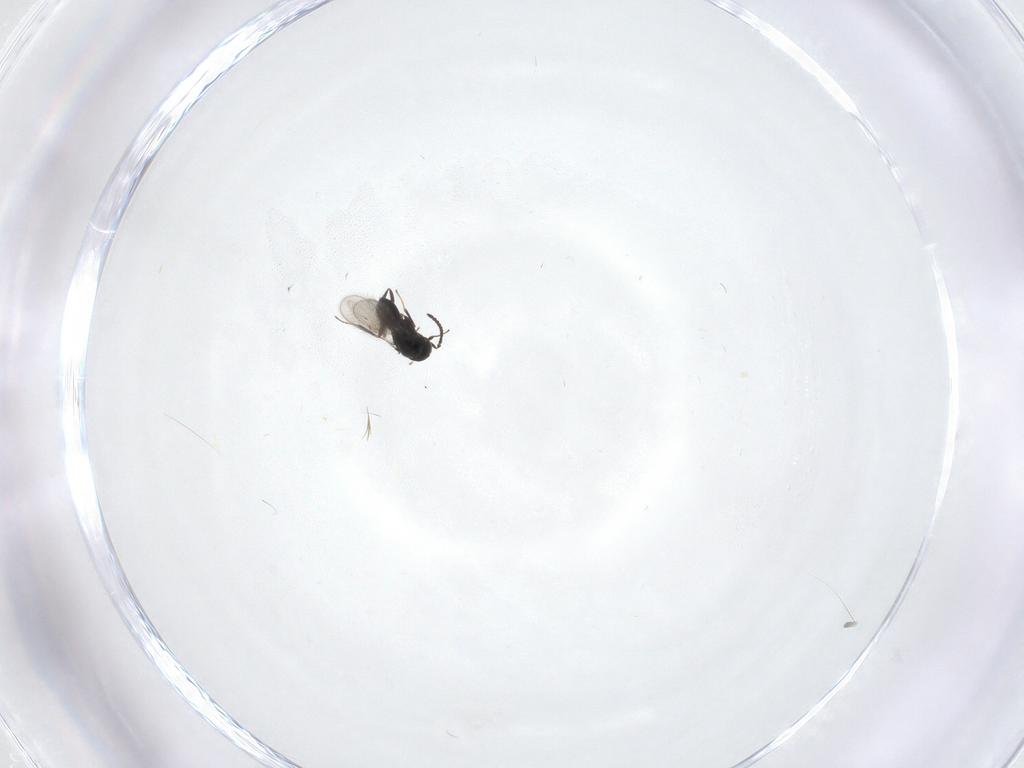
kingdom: Animalia
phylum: Arthropoda
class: Insecta
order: Hymenoptera
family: Scelionidae
